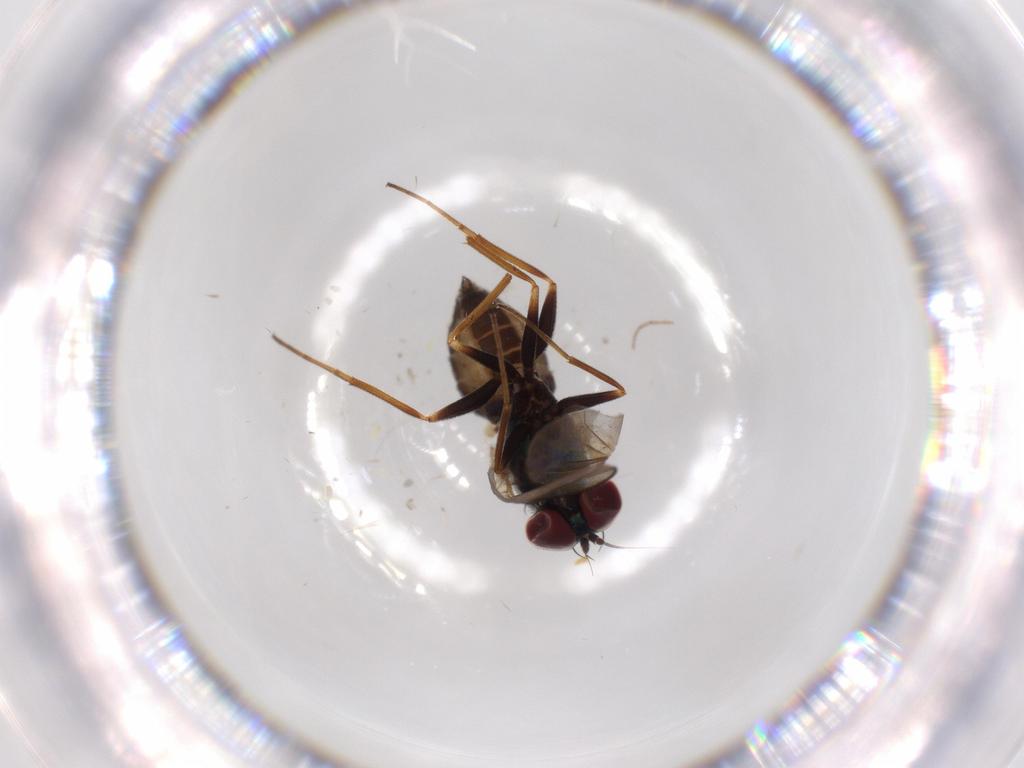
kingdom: Animalia
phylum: Arthropoda
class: Insecta
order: Diptera
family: Dolichopodidae
